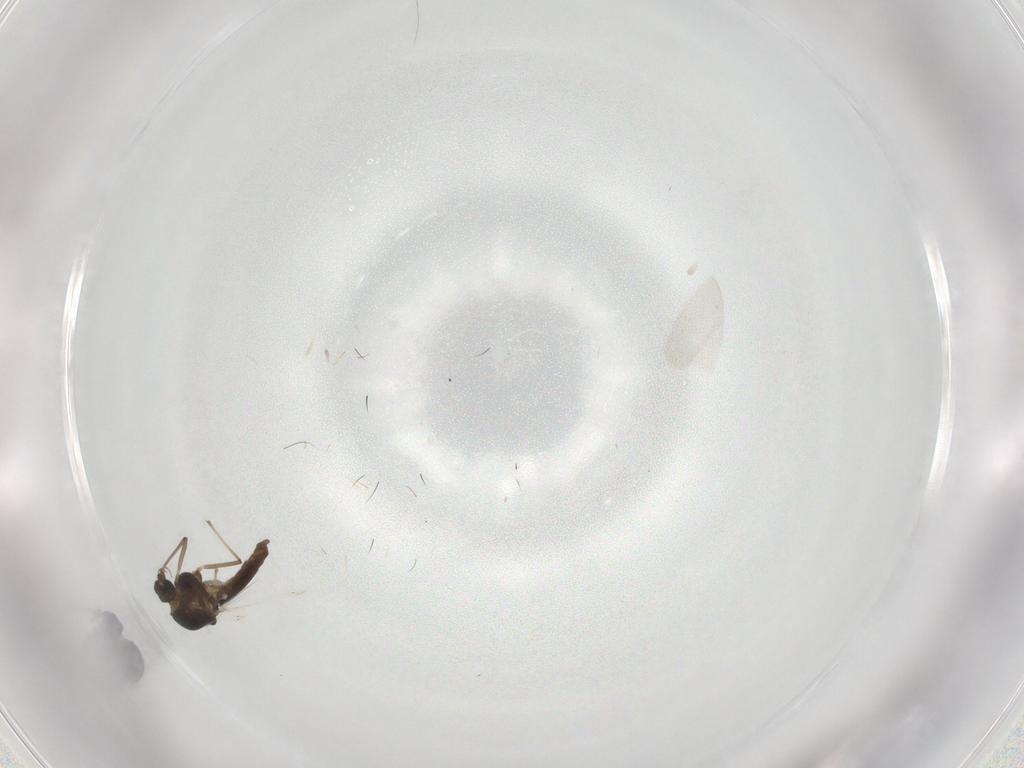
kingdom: Animalia
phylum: Arthropoda
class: Insecta
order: Diptera
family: Chironomidae
